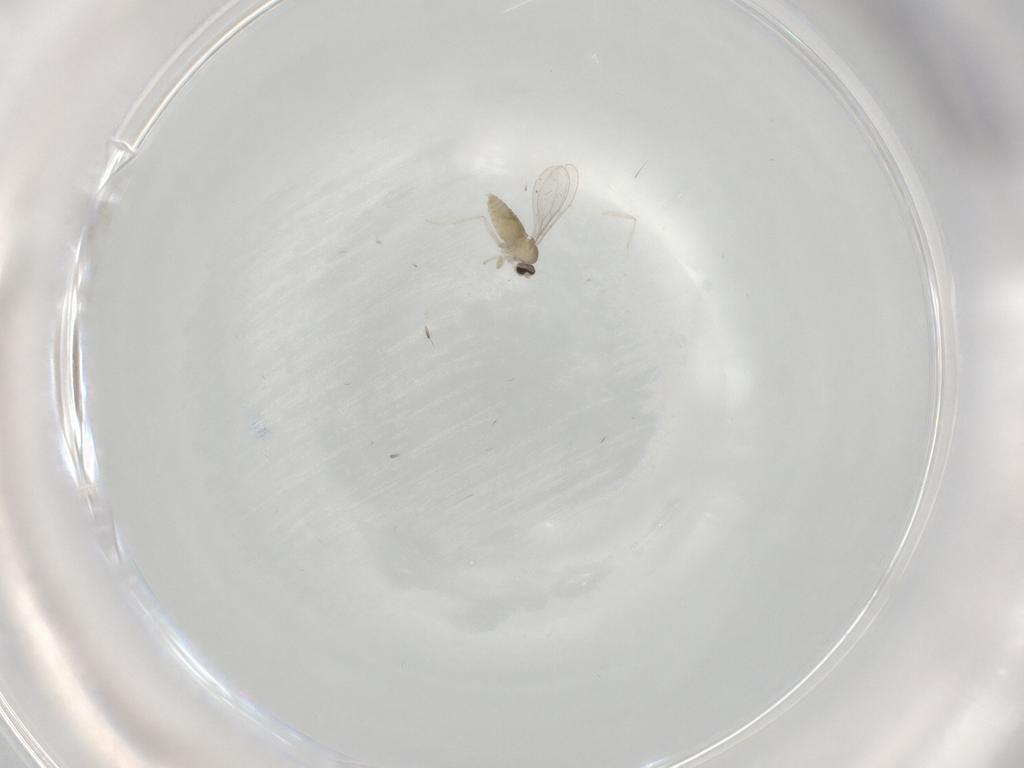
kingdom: Animalia
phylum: Arthropoda
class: Insecta
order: Diptera
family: Cecidomyiidae
